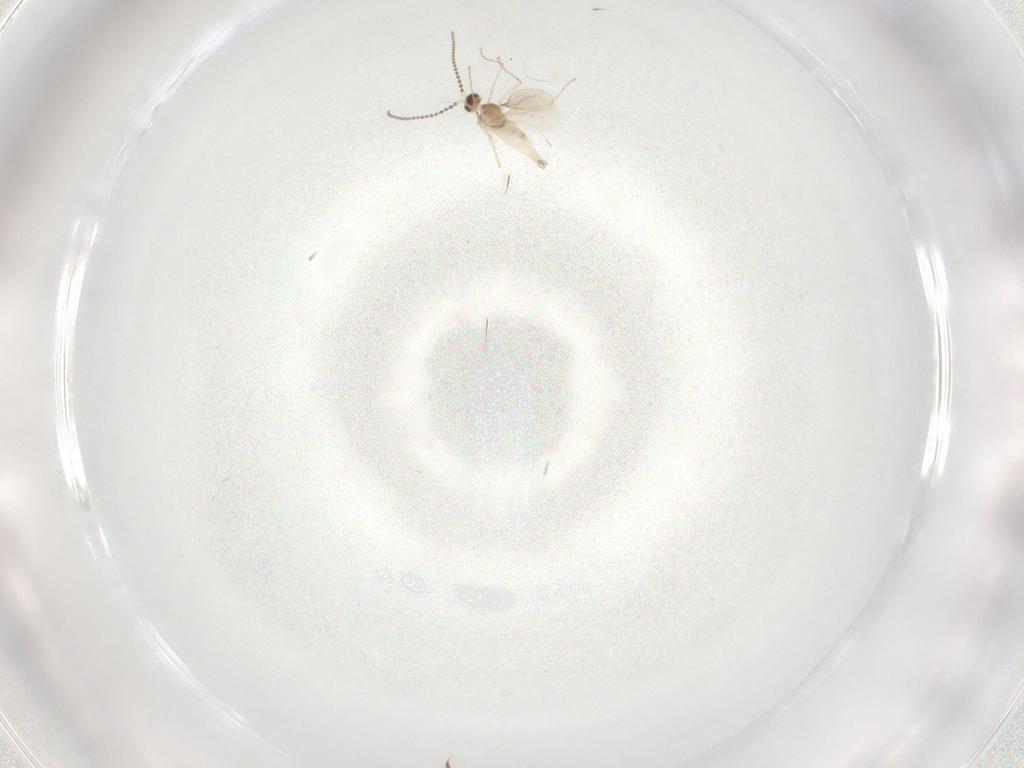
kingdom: Animalia
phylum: Arthropoda
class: Insecta
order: Diptera
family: Cecidomyiidae
